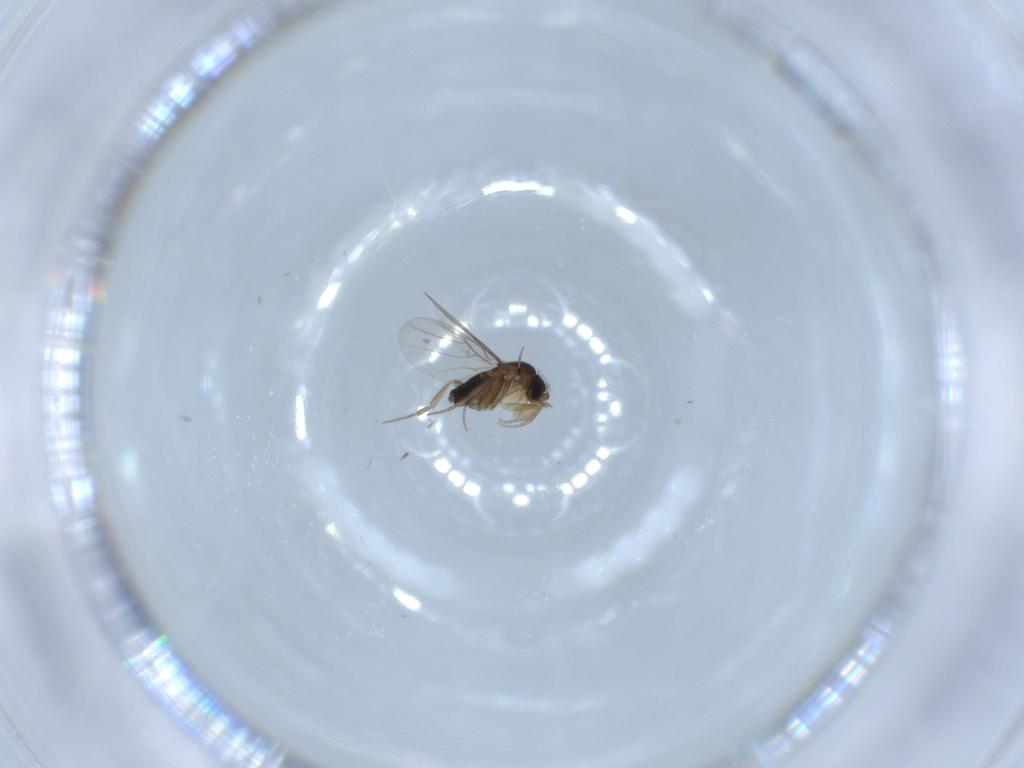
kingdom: Animalia
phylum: Arthropoda
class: Insecta
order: Diptera
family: Phoridae
